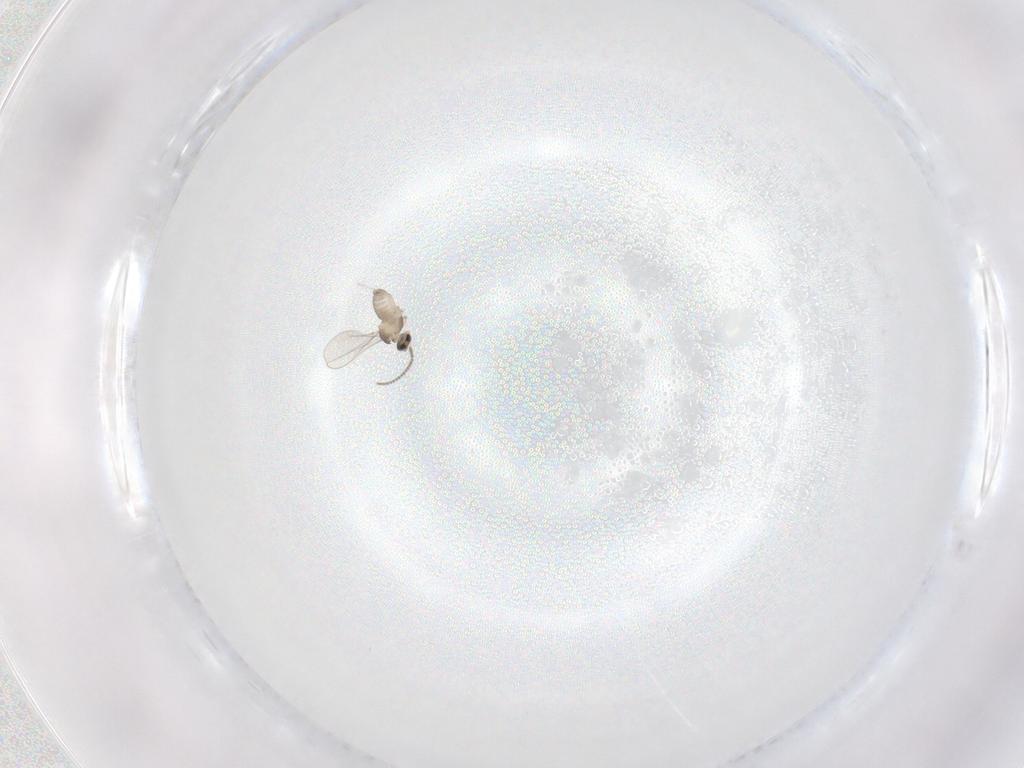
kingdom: Animalia
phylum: Arthropoda
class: Insecta
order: Diptera
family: Cecidomyiidae
